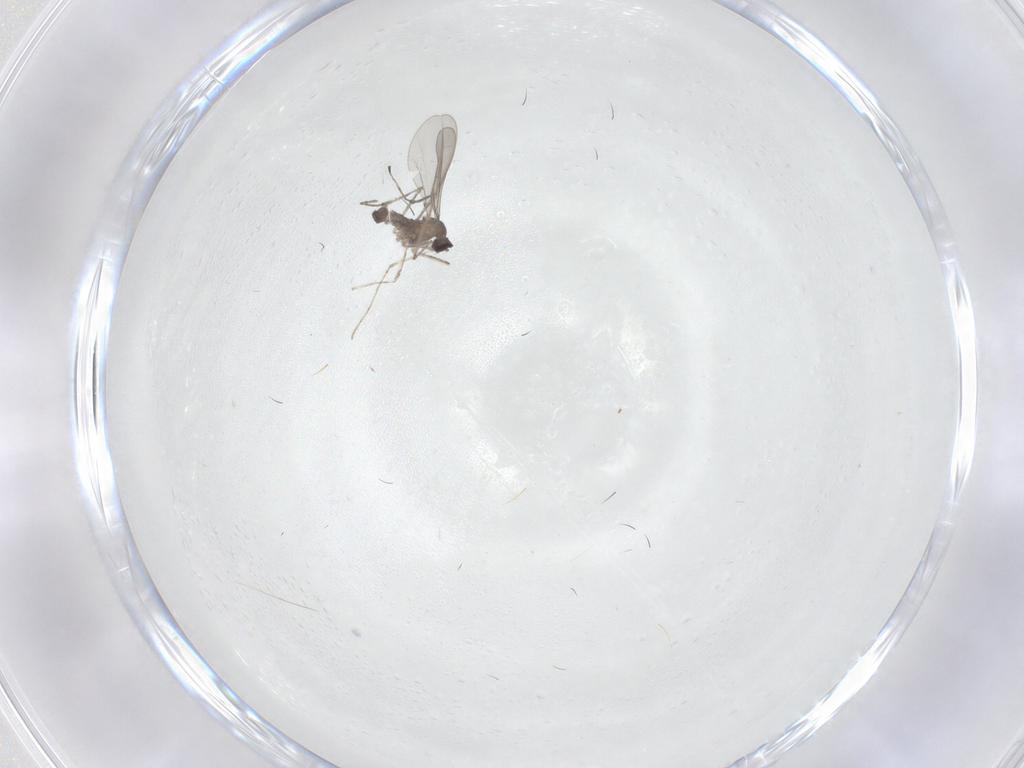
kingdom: Animalia
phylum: Arthropoda
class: Insecta
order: Diptera
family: Cecidomyiidae
